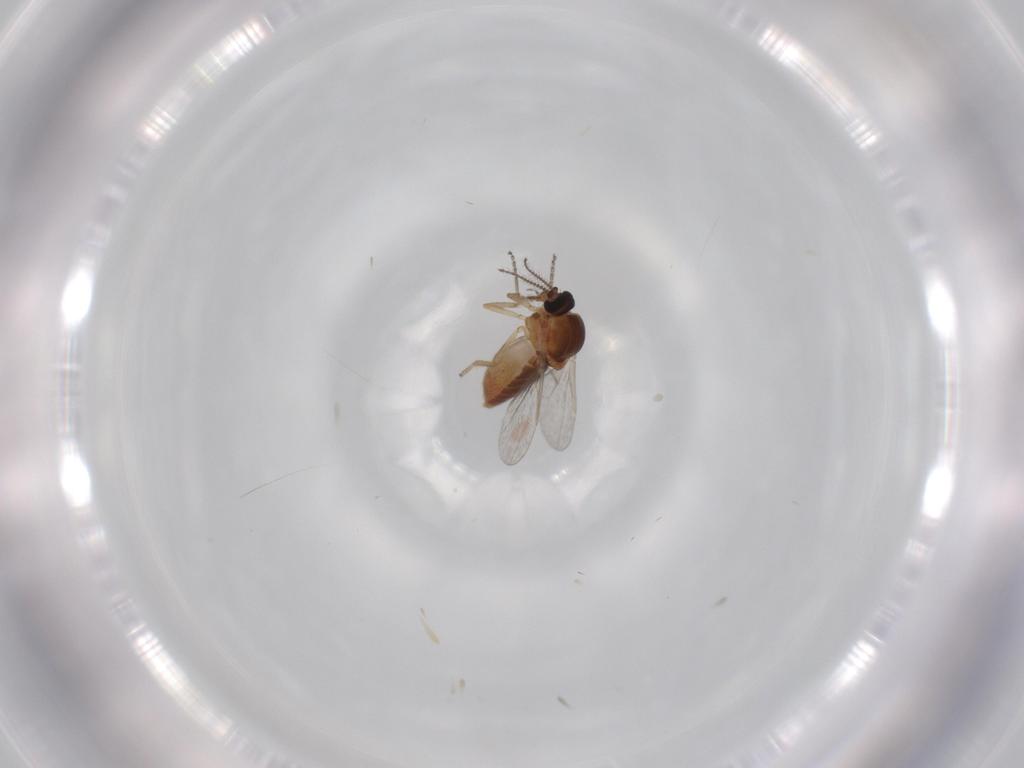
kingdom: Animalia
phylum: Arthropoda
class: Insecta
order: Diptera
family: Ceratopogonidae
